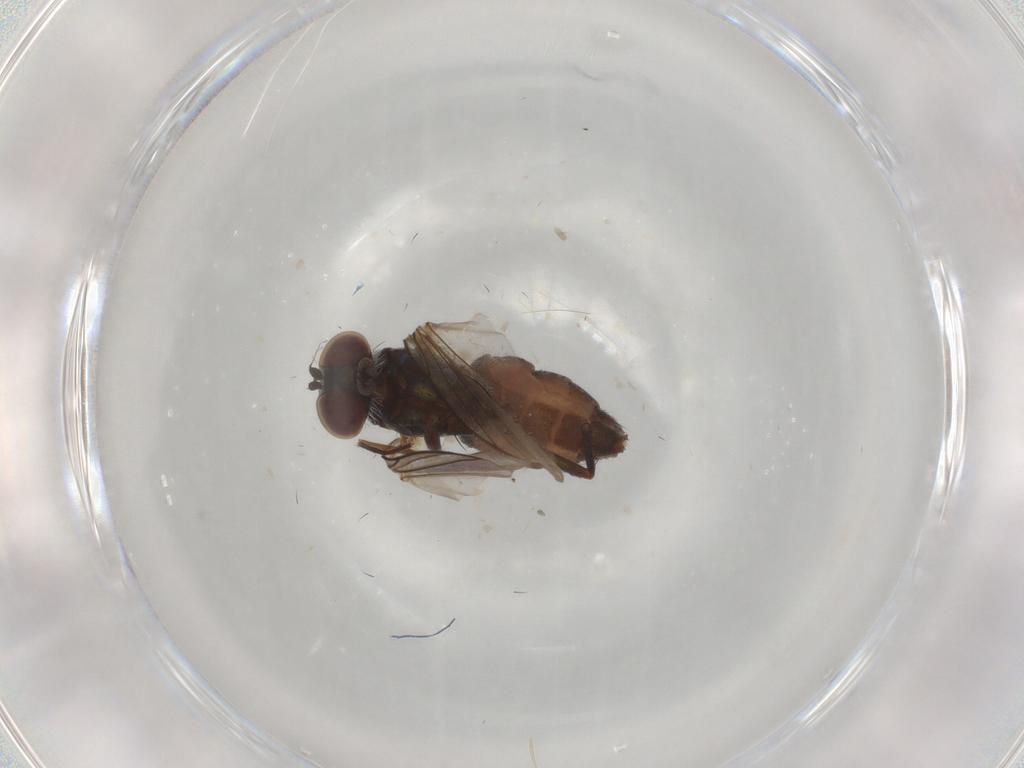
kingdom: Animalia
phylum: Arthropoda
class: Insecta
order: Diptera
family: Dolichopodidae
